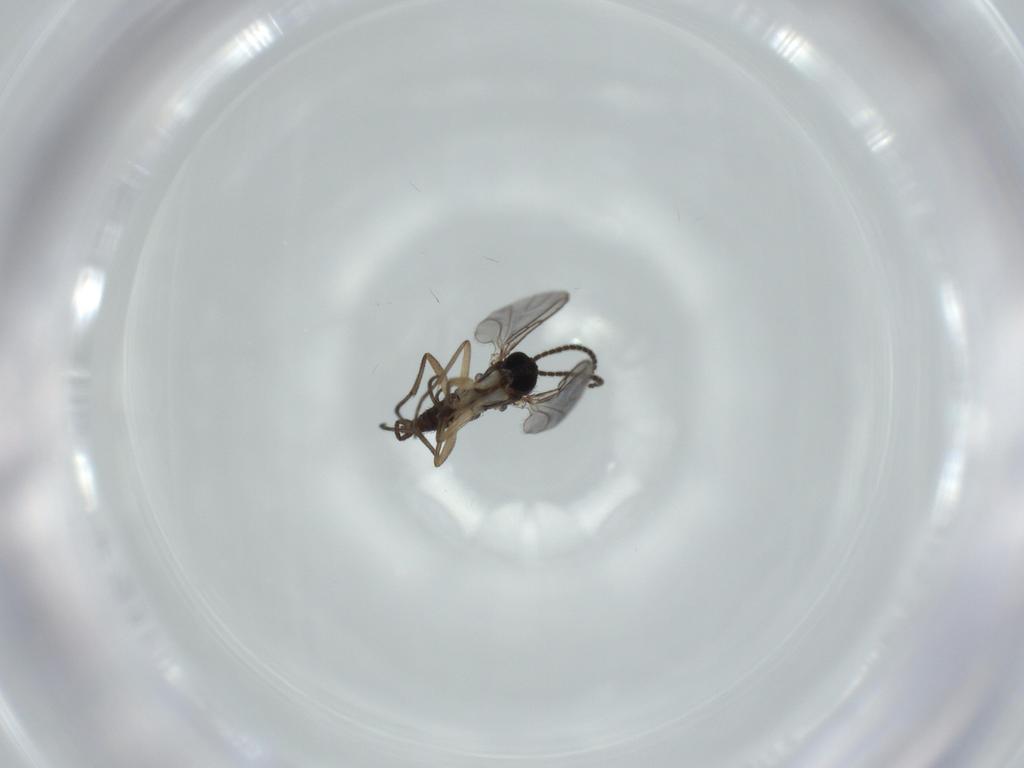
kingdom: Animalia
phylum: Arthropoda
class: Insecta
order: Diptera
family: Sciaridae
